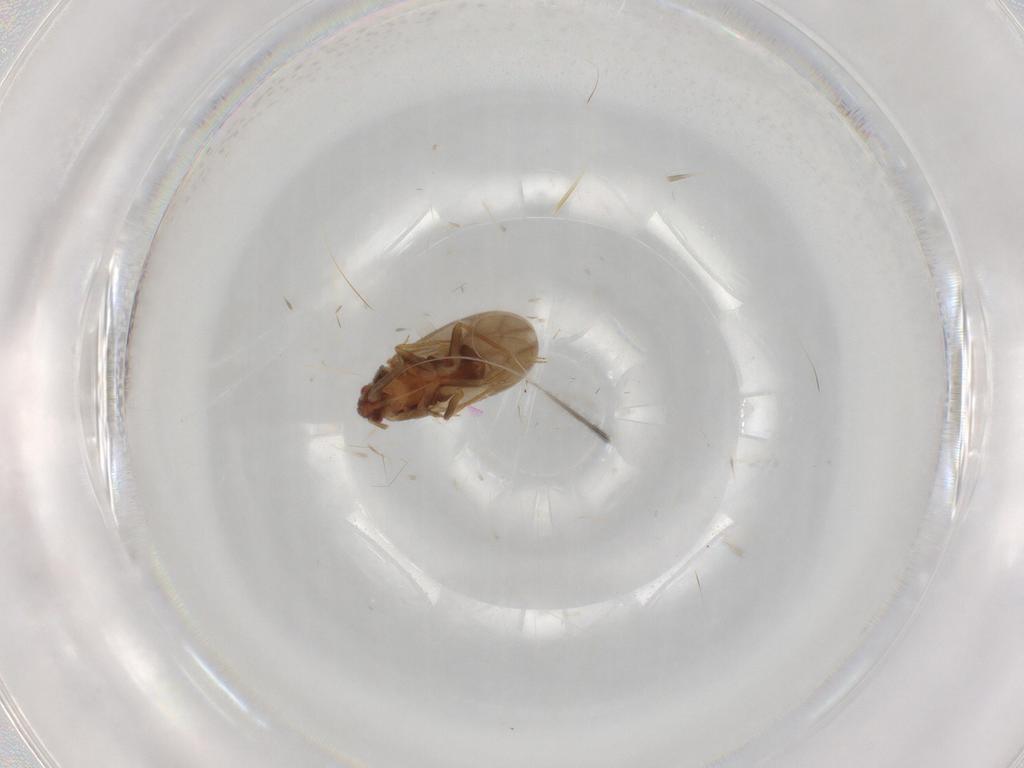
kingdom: Animalia
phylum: Arthropoda
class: Insecta
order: Hemiptera
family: Ceratocombidae
